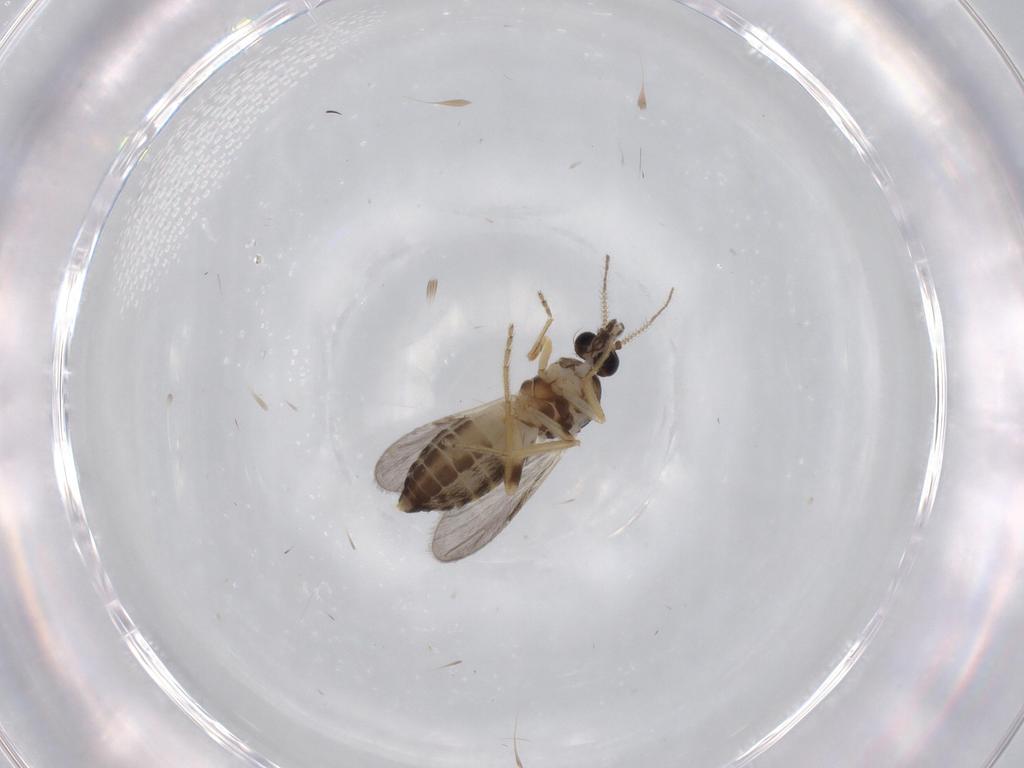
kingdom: Animalia
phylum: Arthropoda
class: Insecta
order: Diptera
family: Ceratopogonidae
